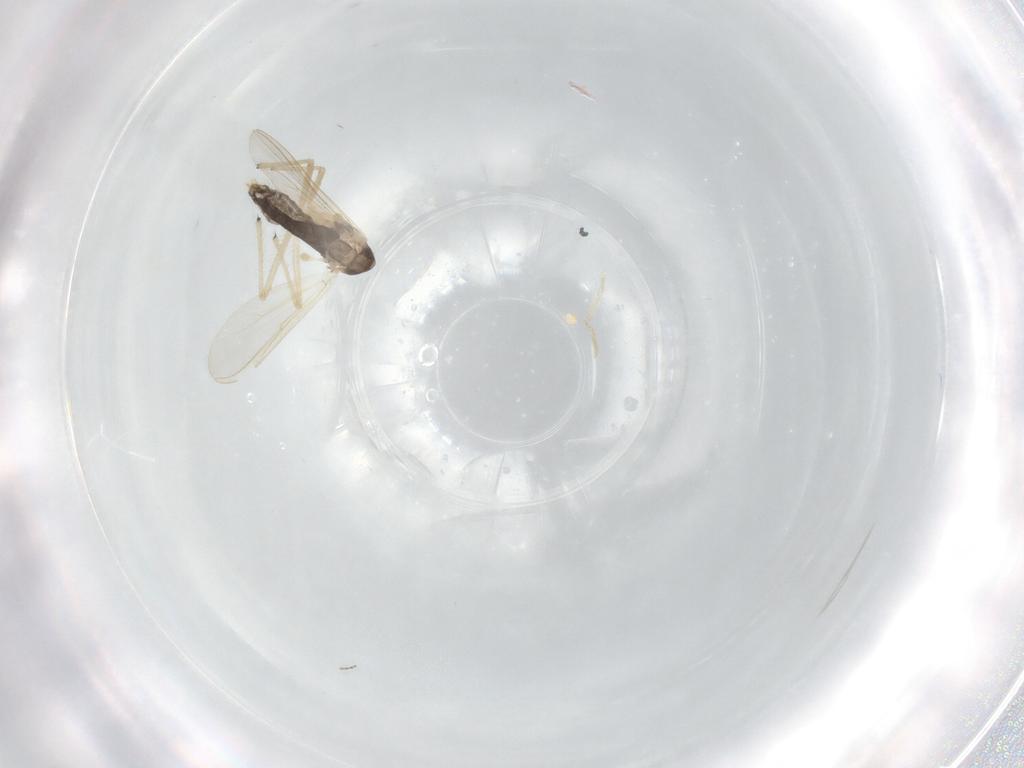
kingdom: Animalia
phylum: Arthropoda
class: Insecta
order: Diptera
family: Chironomidae
